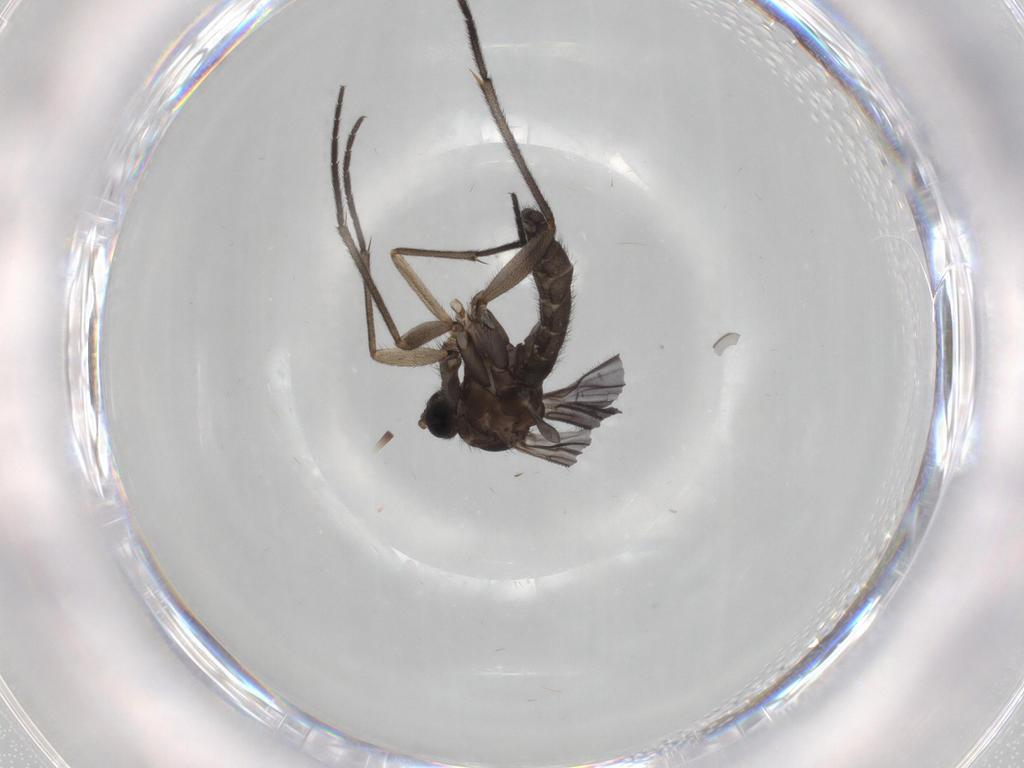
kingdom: Animalia
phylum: Arthropoda
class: Insecta
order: Diptera
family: Sciaridae
